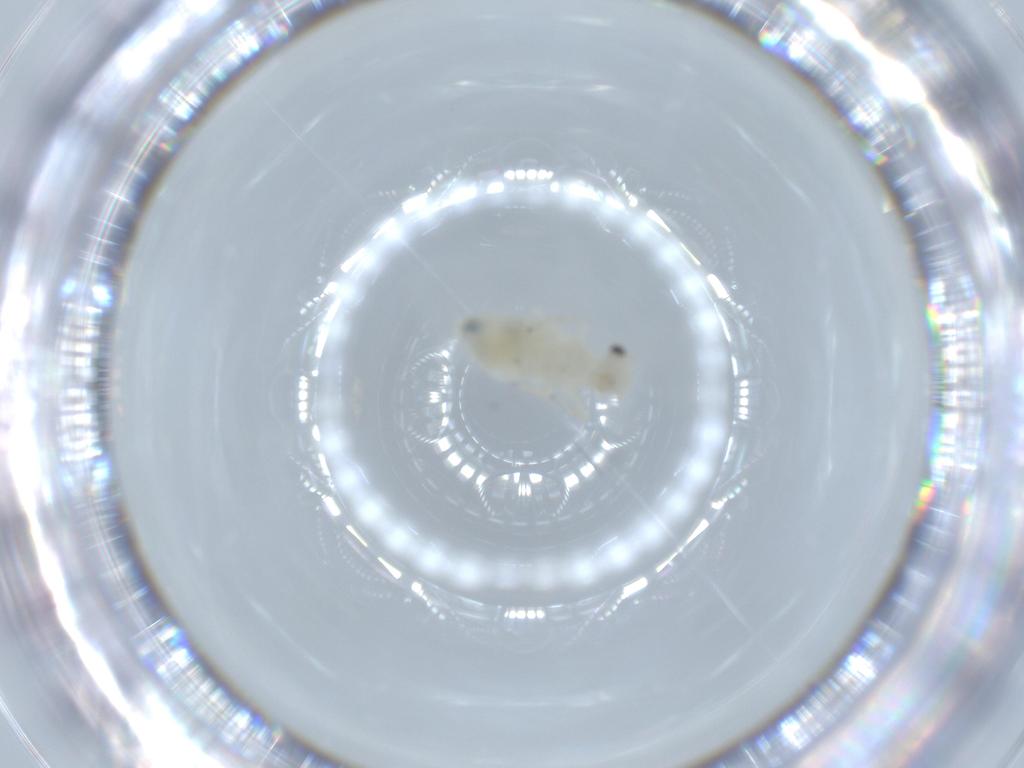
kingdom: Animalia
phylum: Arthropoda
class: Insecta
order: Psocodea
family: Caeciliusidae
